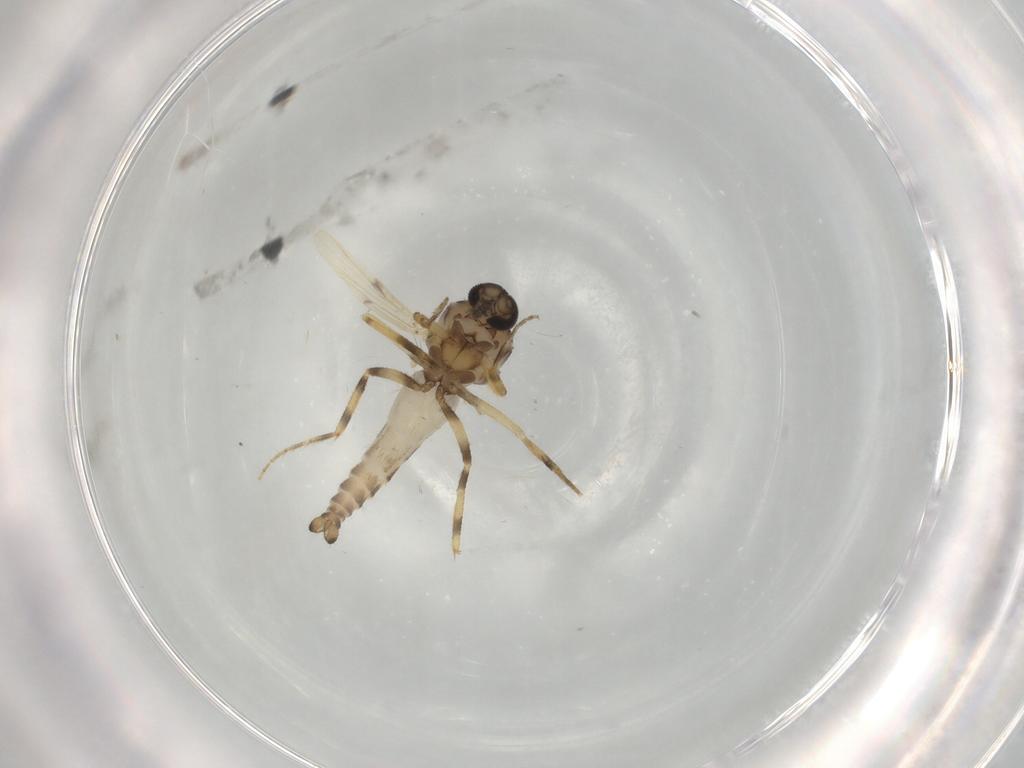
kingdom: Animalia
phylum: Arthropoda
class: Insecta
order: Diptera
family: Ceratopogonidae
